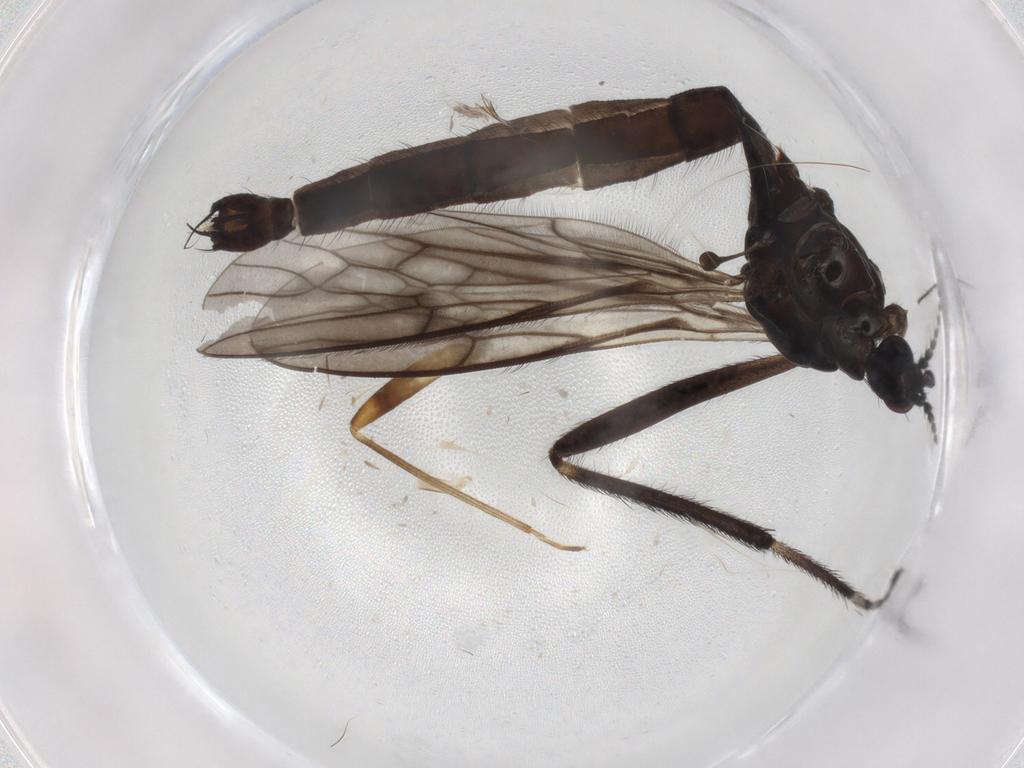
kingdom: Animalia
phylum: Arthropoda
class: Insecta
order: Diptera
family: Limoniidae
